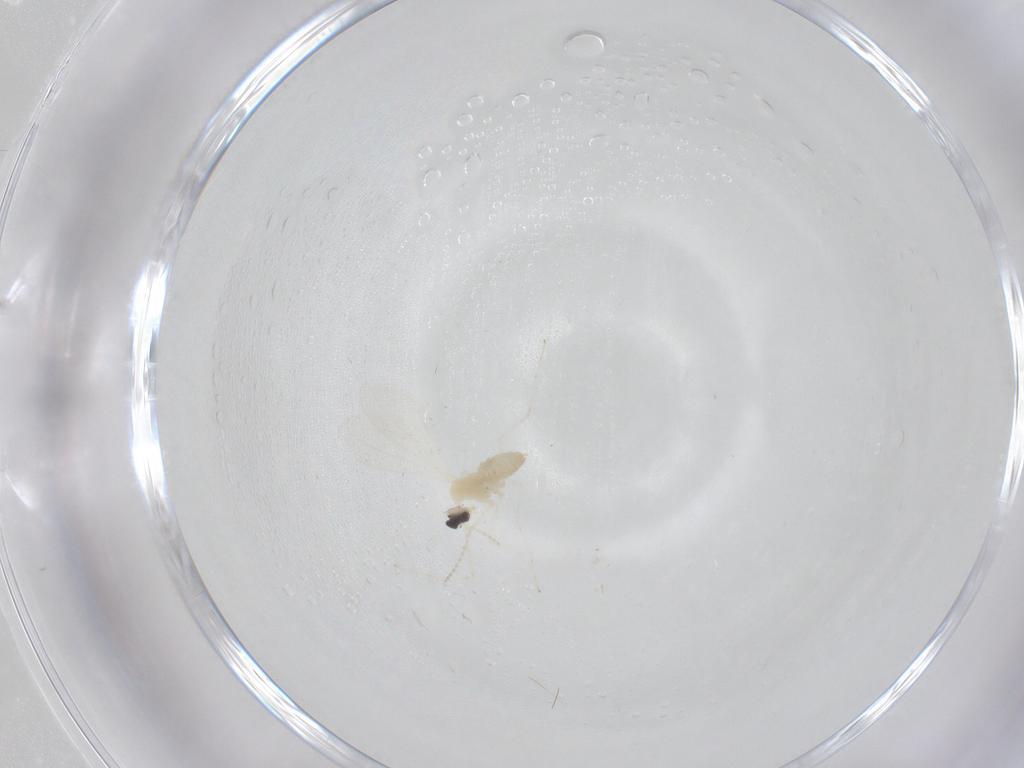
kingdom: Animalia
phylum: Arthropoda
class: Insecta
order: Diptera
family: Cecidomyiidae
